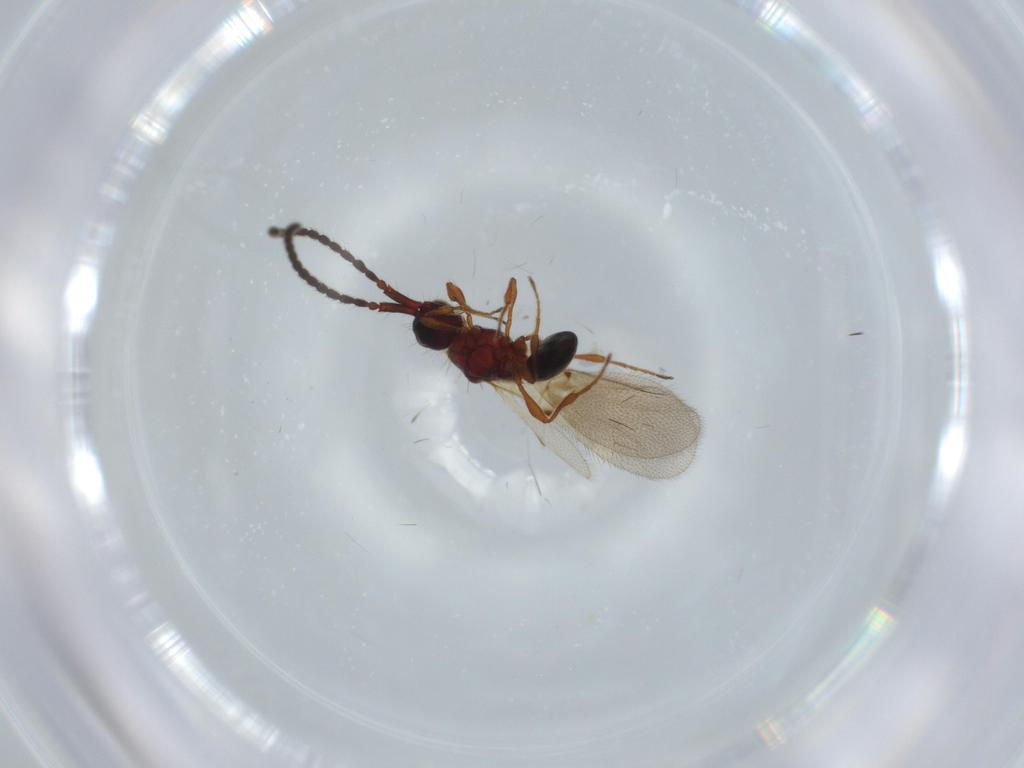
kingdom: Animalia
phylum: Arthropoda
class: Insecta
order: Hymenoptera
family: Diapriidae
